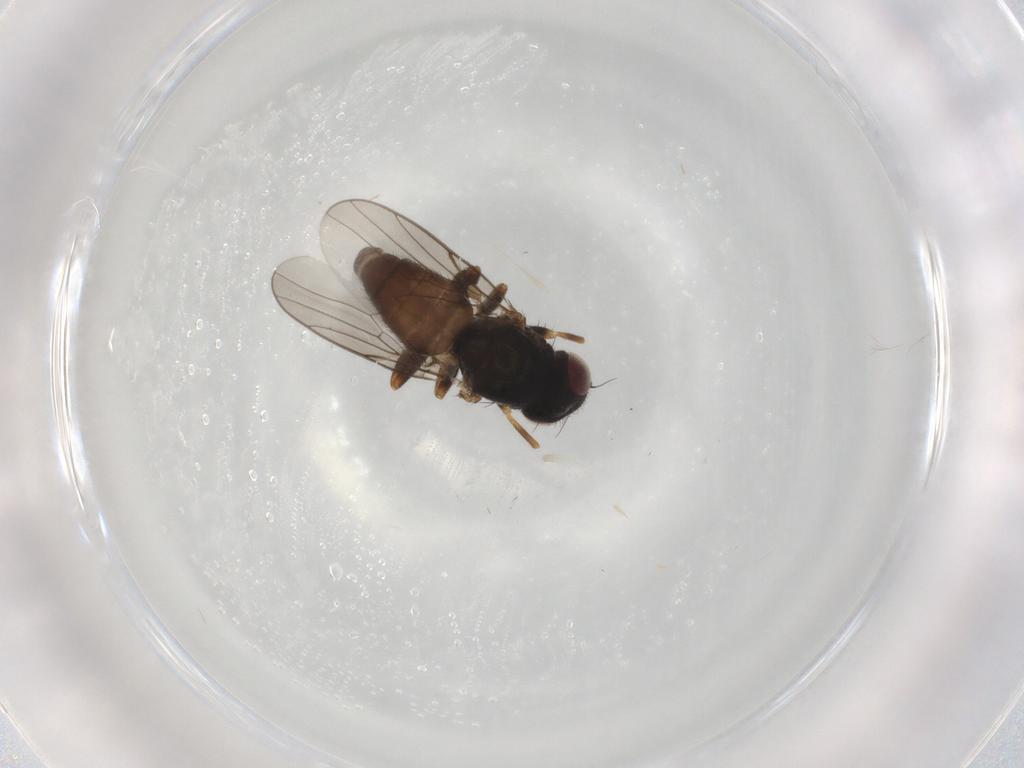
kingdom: Animalia
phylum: Arthropoda
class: Insecta
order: Diptera
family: Chloropidae
